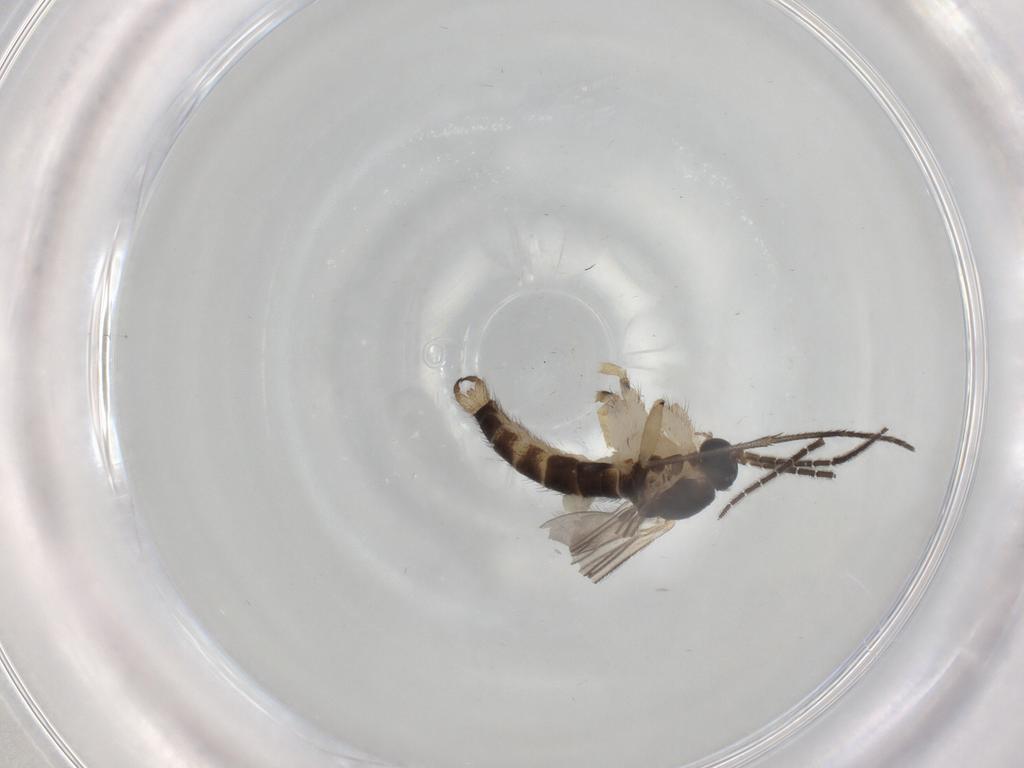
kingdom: Animalia
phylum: Arthropoda
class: Insecta
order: Diptera
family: Sciaridae
